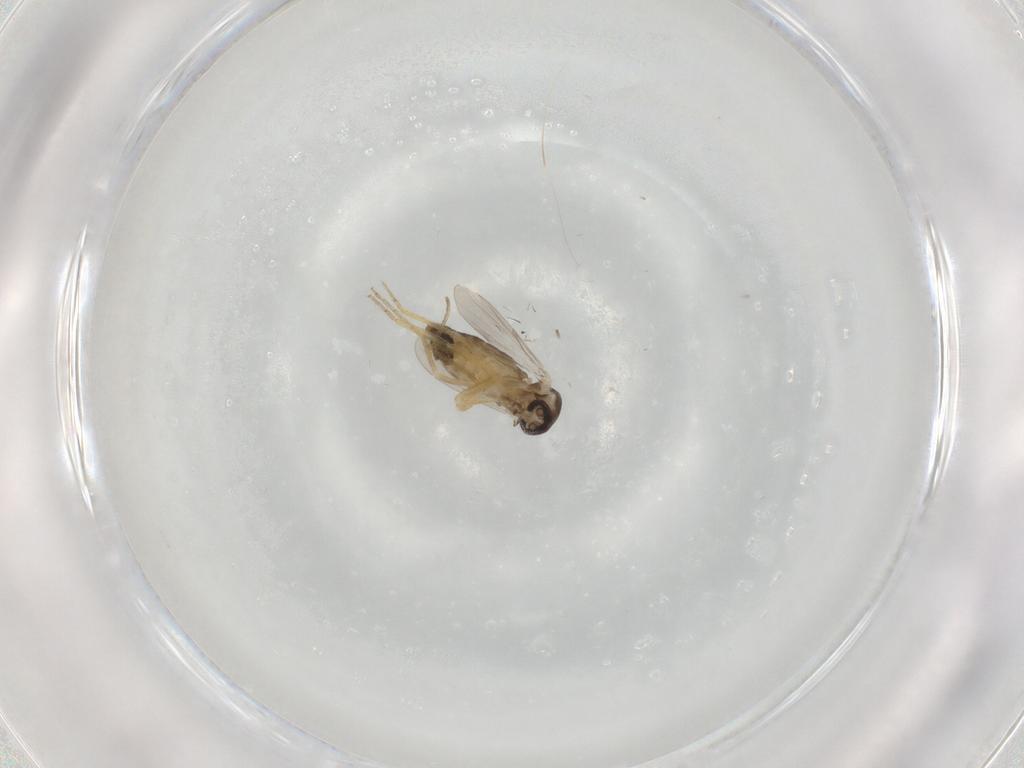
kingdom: Animalia
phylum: Arthropoda
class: Insecta
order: Diptera
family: Ceratopogonidae
